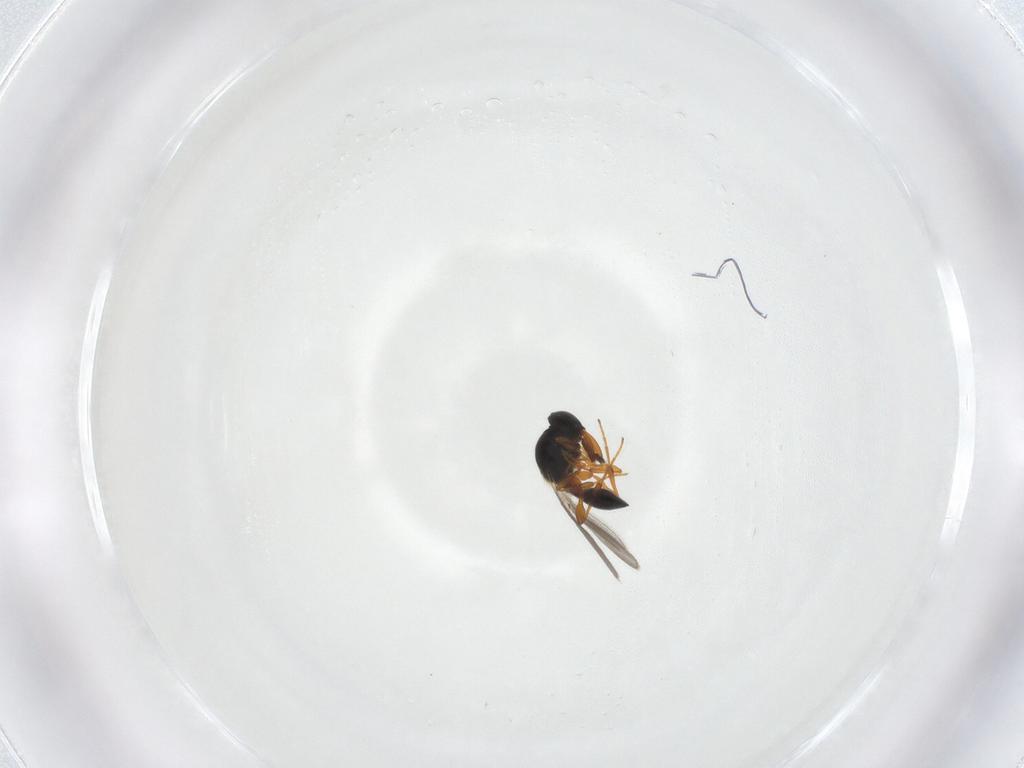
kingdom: Animalia
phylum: Arthropoda
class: Insecta
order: Hymenoptera
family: Platygastridae
